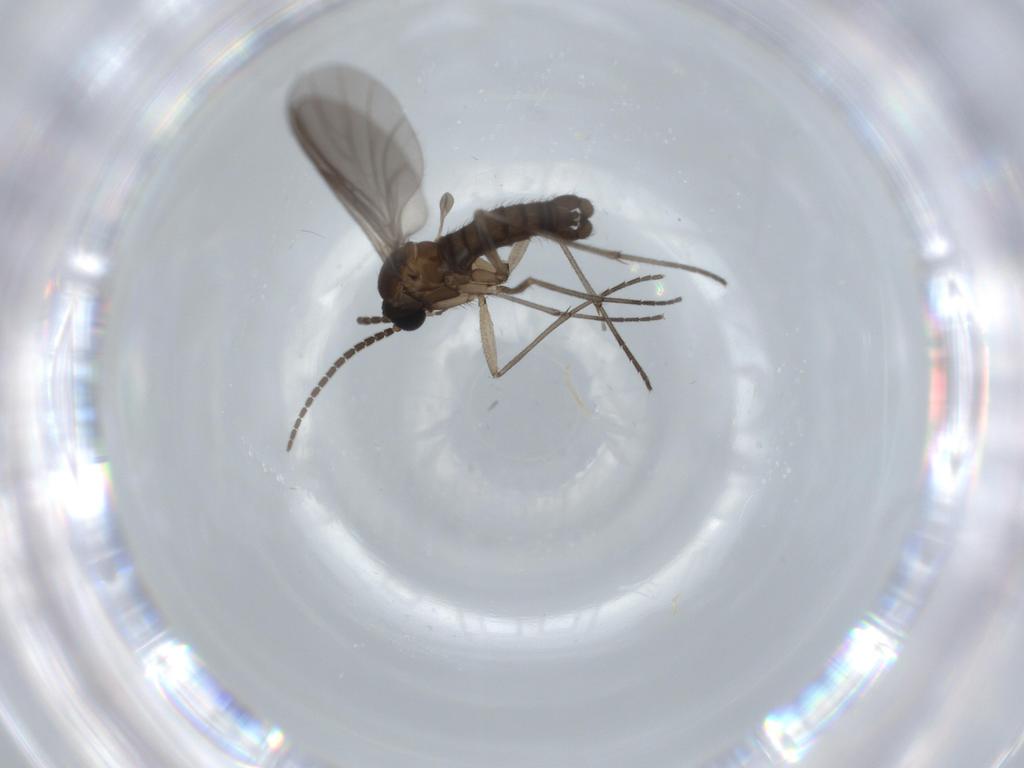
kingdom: Animalia
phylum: Arthropoda
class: Insecta
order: Diptera
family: Sciaridae
